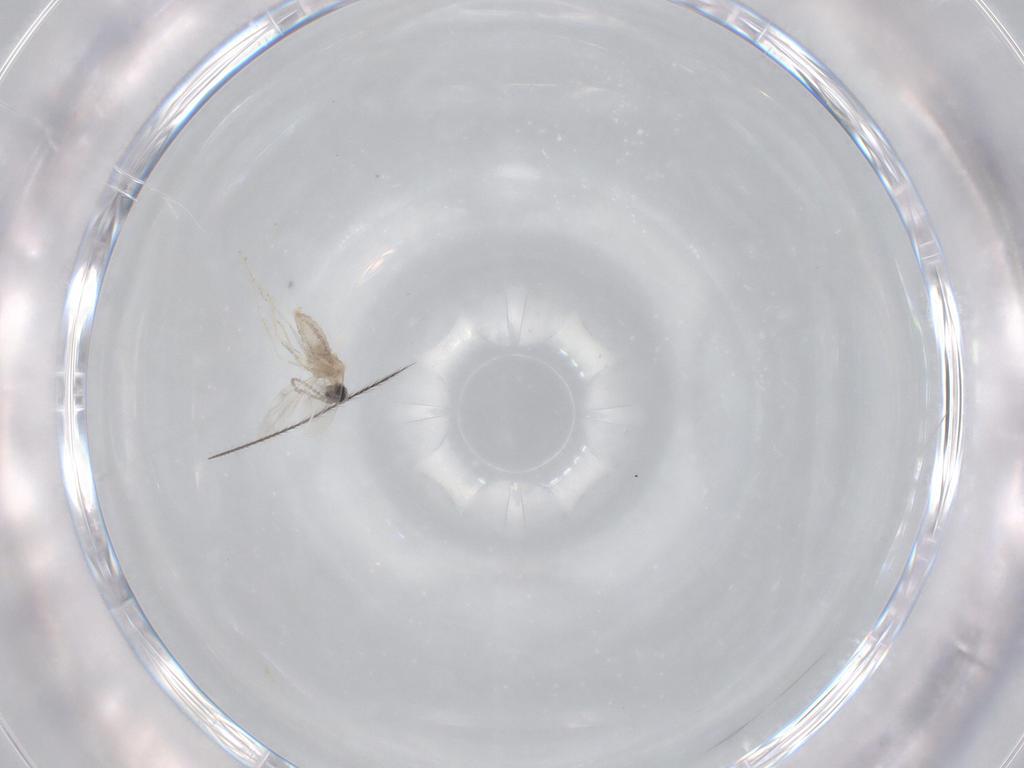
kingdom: Animalia
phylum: Arthropoda
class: Insecta
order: Diptera
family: Cecidomyiidae
